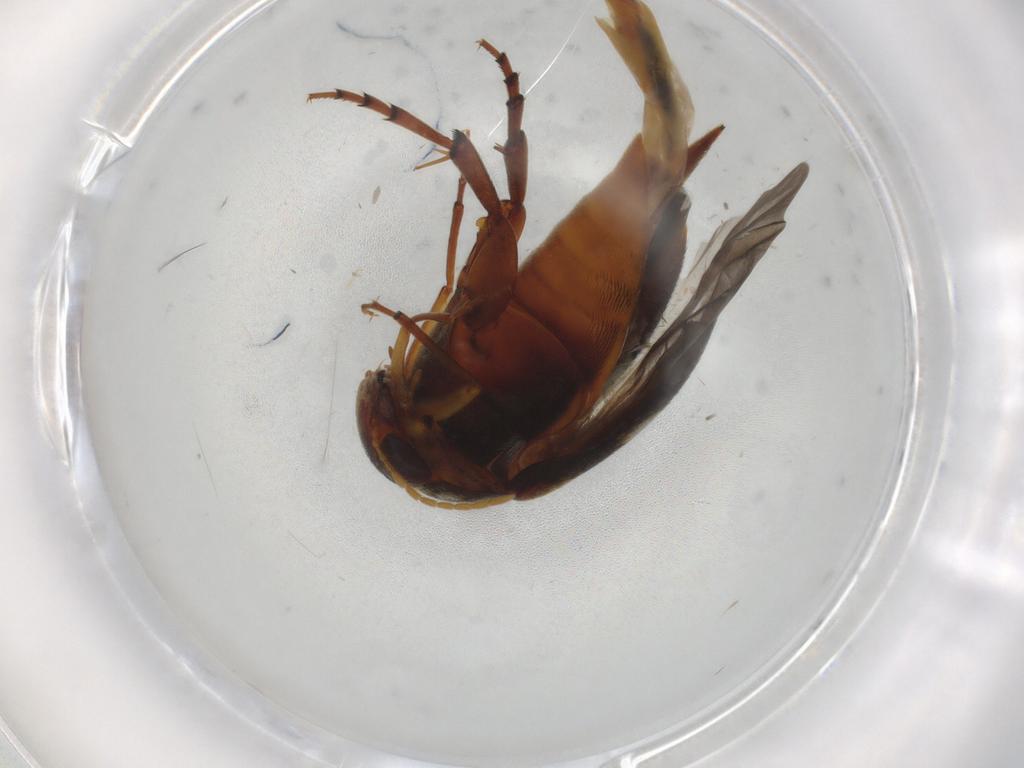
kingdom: Animalia
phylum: Arthropoda
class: Insecta
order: Coleoptera
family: Mordellidae
